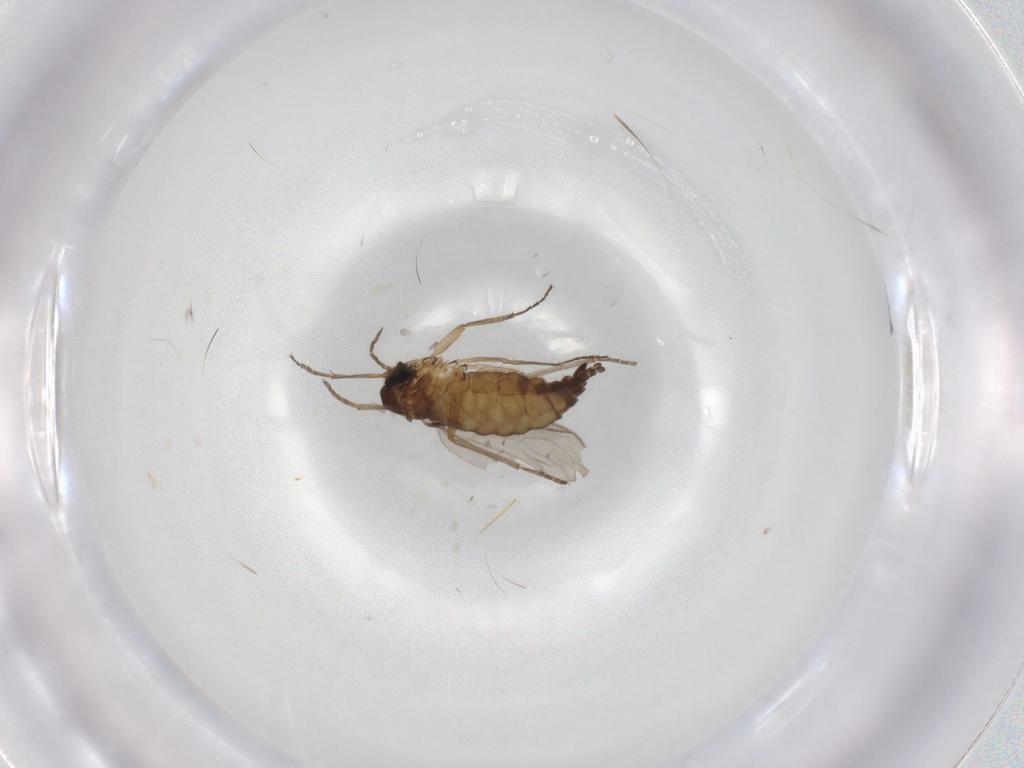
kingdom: Animalia
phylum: Arthropoda
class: Insecta
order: Diptera
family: Sciaridae
